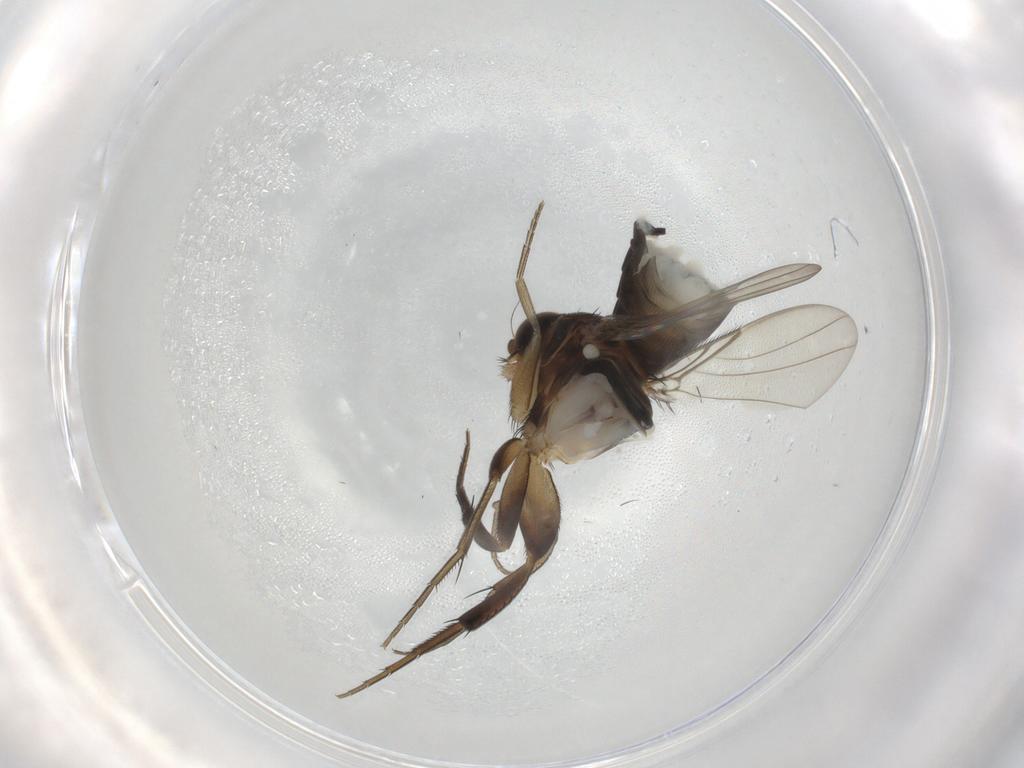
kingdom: Animalia
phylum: Arthropoda
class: Insecta
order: Diptera
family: Phoridae
